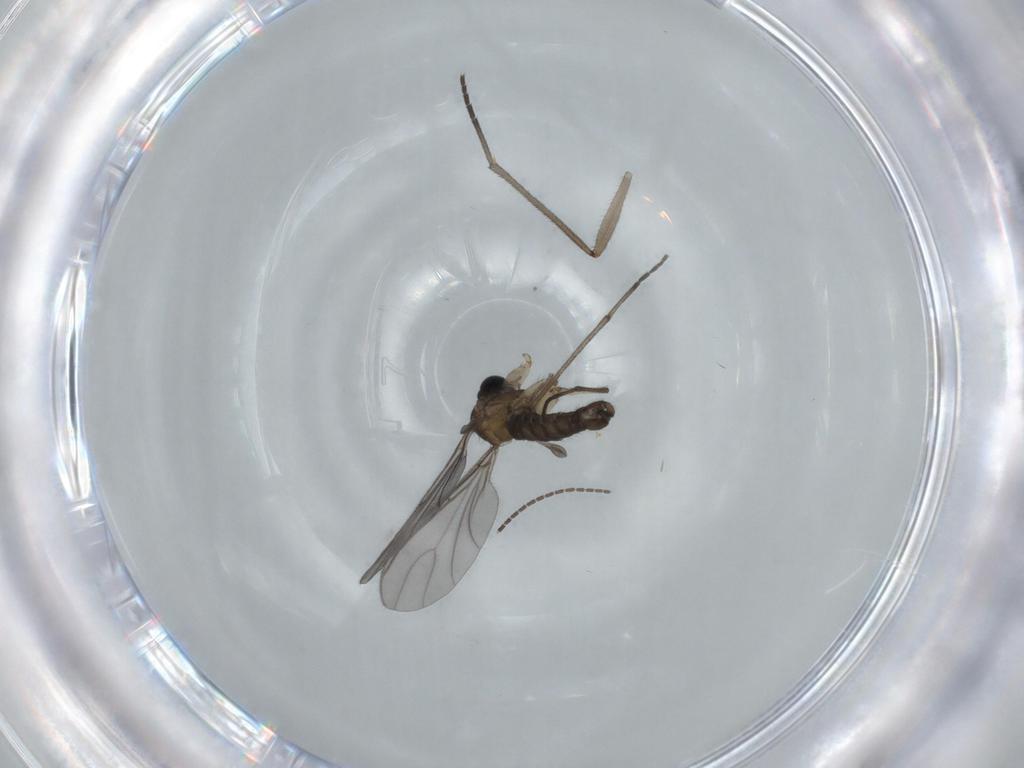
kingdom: Animalia
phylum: Arthropoda
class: Insecta
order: Diptera
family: Sciaridae
